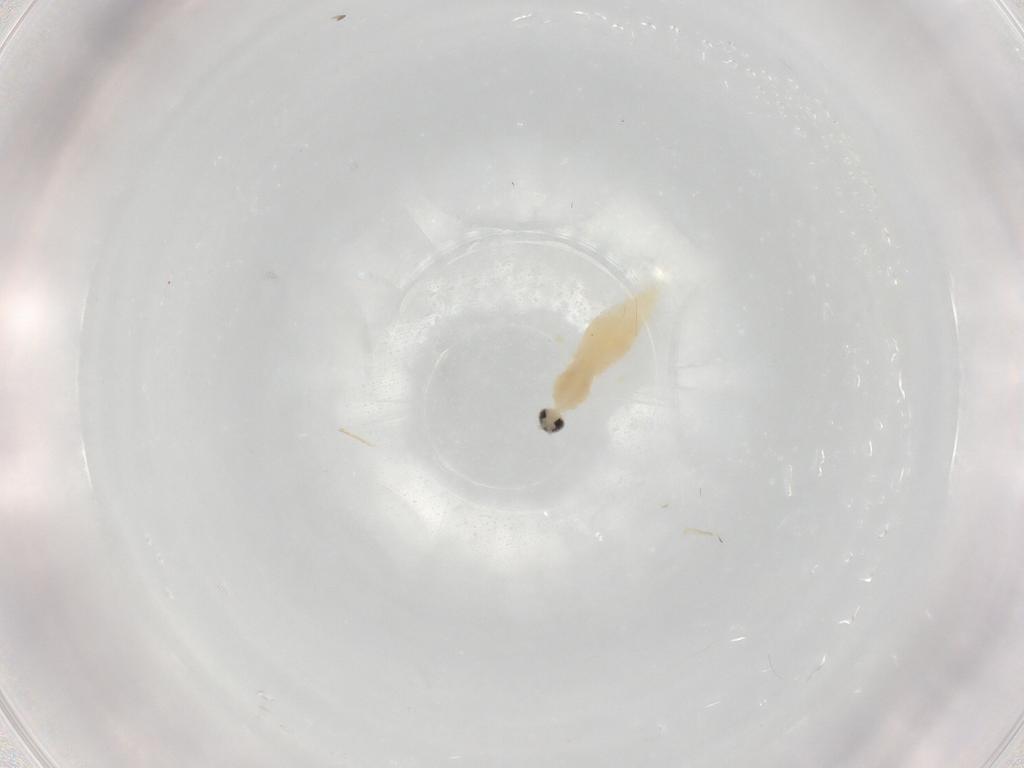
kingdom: Animalia
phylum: Arthropoda
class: Insecta
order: Diptera
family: Cecidomyiidae
